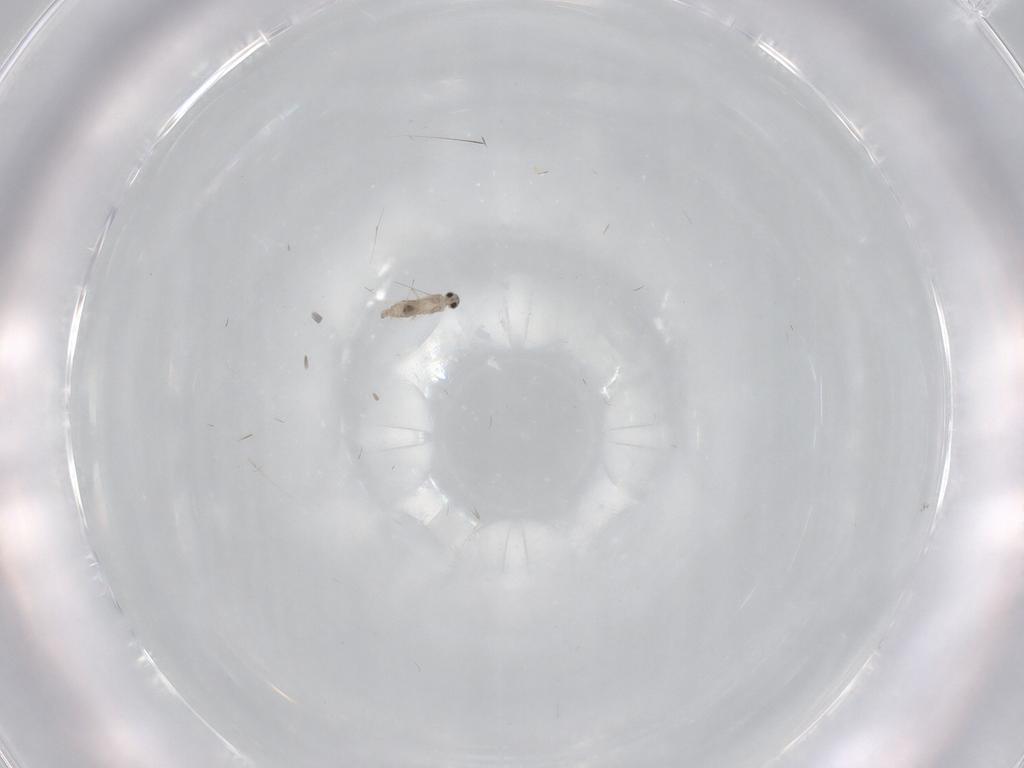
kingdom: Animalia
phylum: Arthropoda
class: Insecta
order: Diptera
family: Cecidomyiidae
